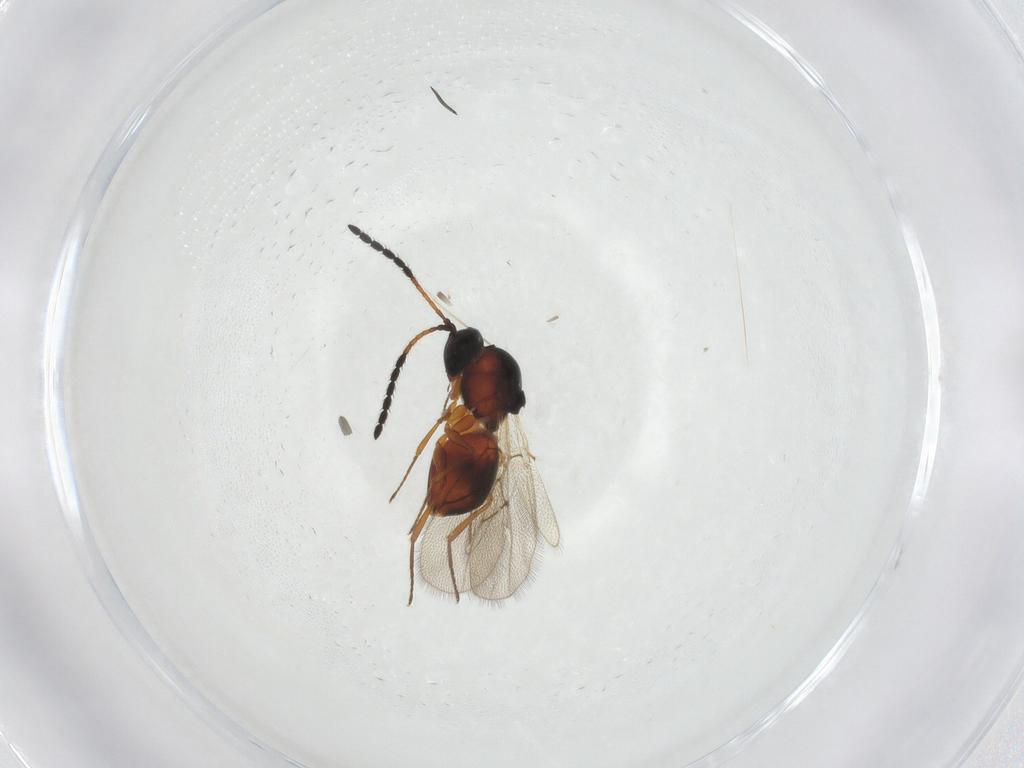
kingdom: Animalia
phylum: Arthropoda
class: Insecta
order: Hymenoptera
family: Figitidae
